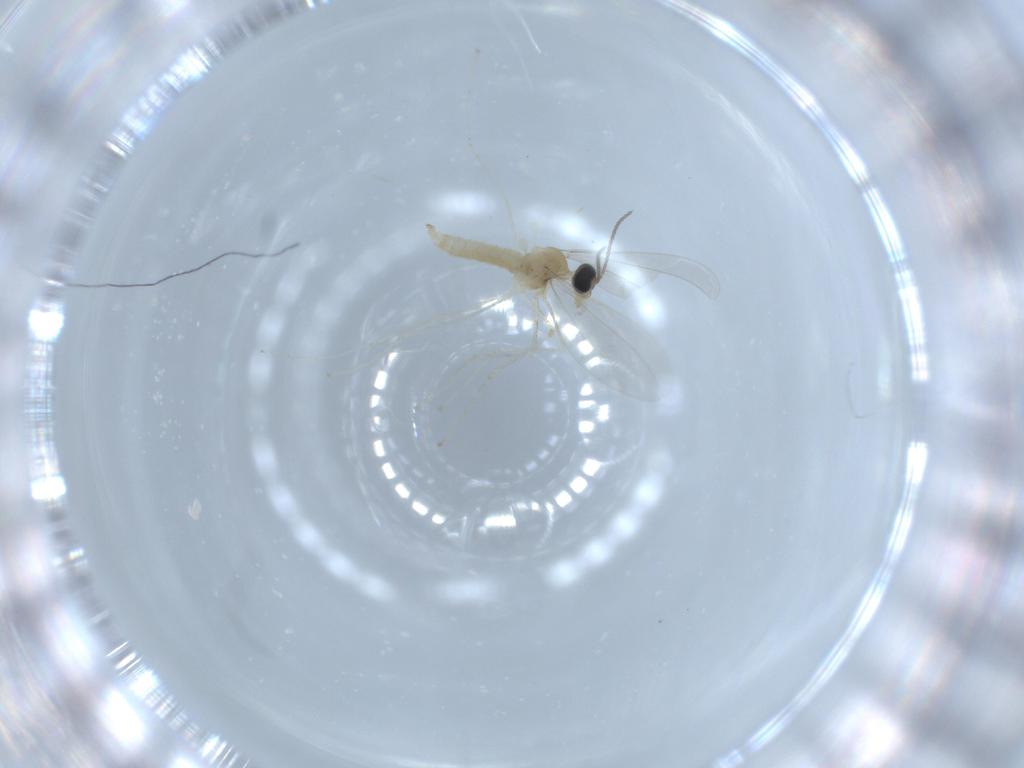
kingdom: Animalia
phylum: Arthropoda
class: Insecta
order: Diptera
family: Cecidomyiidae
